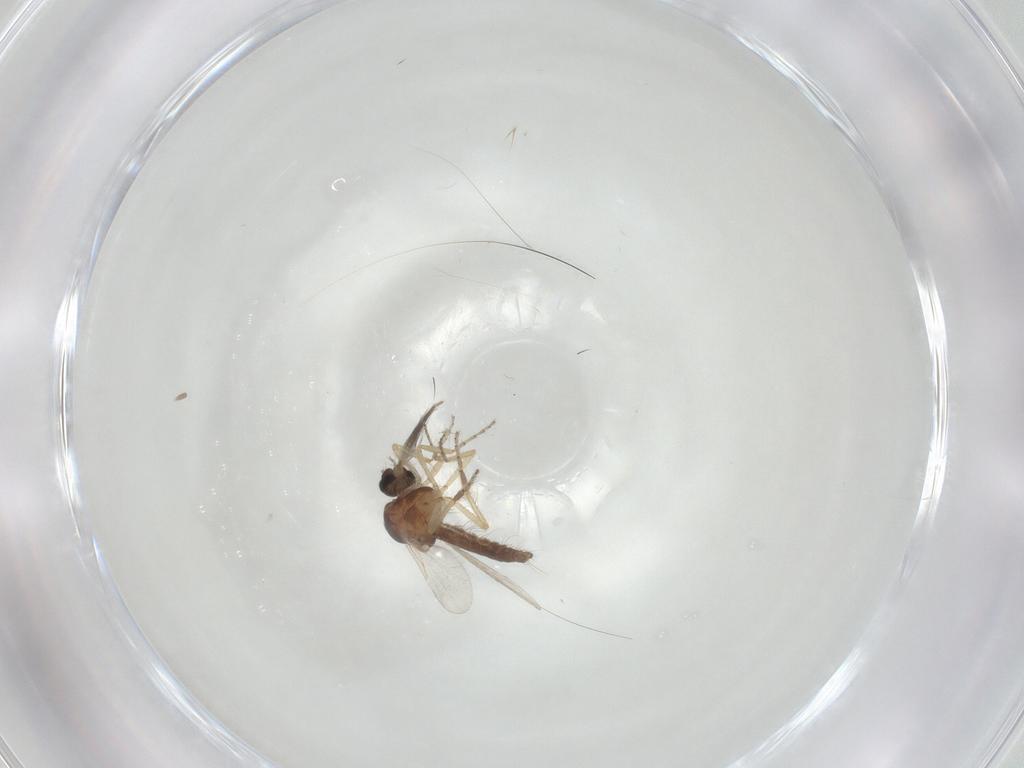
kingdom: Animalia
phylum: Arthropoda
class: Insecta
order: Diptera
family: Ceratopogonidae
